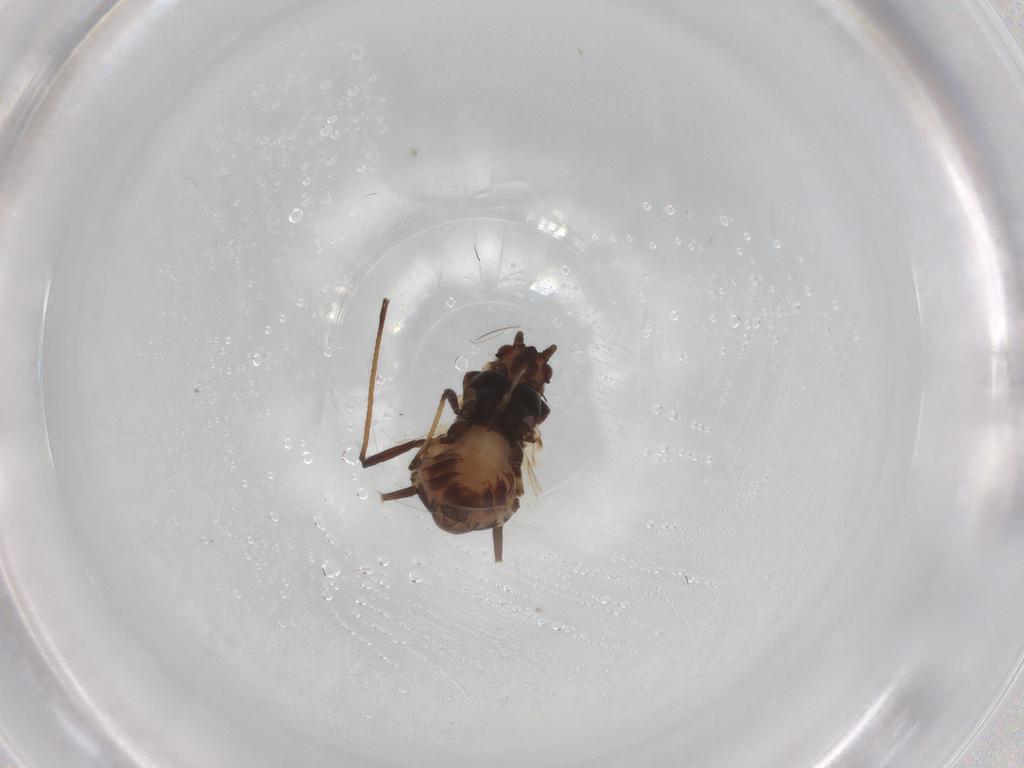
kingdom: Animalia
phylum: Arthropoda
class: Insecta
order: Hemiptera
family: Aphididae
